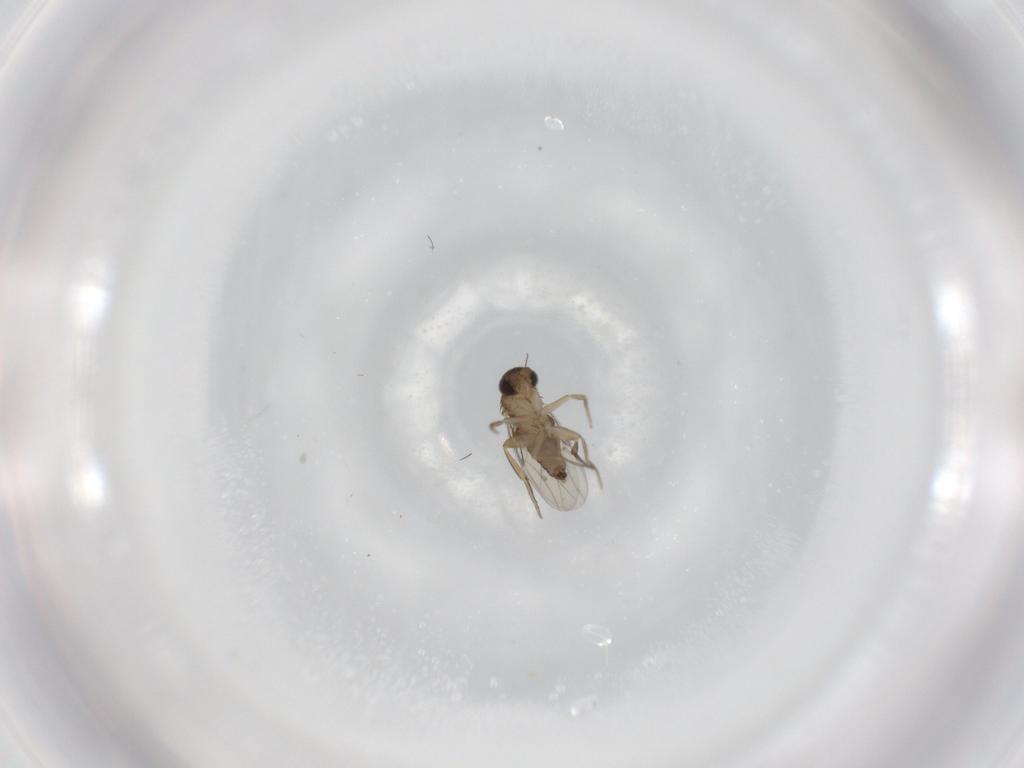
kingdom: Animalia
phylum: Arthropoda
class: Insecta
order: Diptera
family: Phoridae
